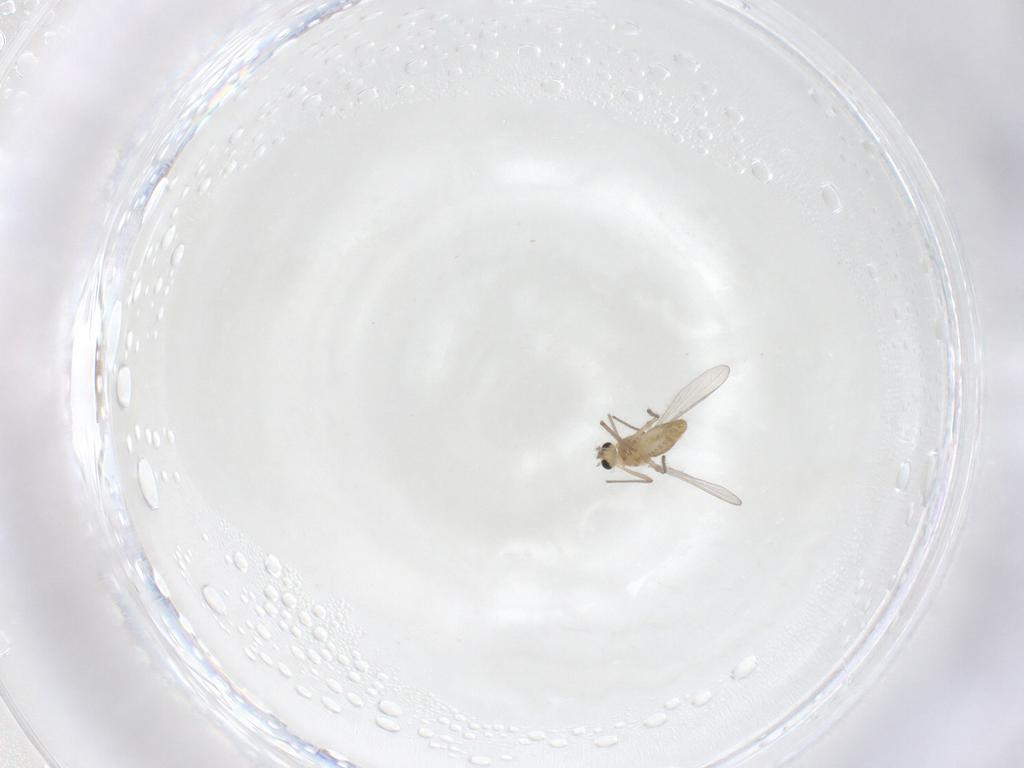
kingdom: Animalia
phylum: Arthropoda
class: Insecta
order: Diptera
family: Chironomidae
